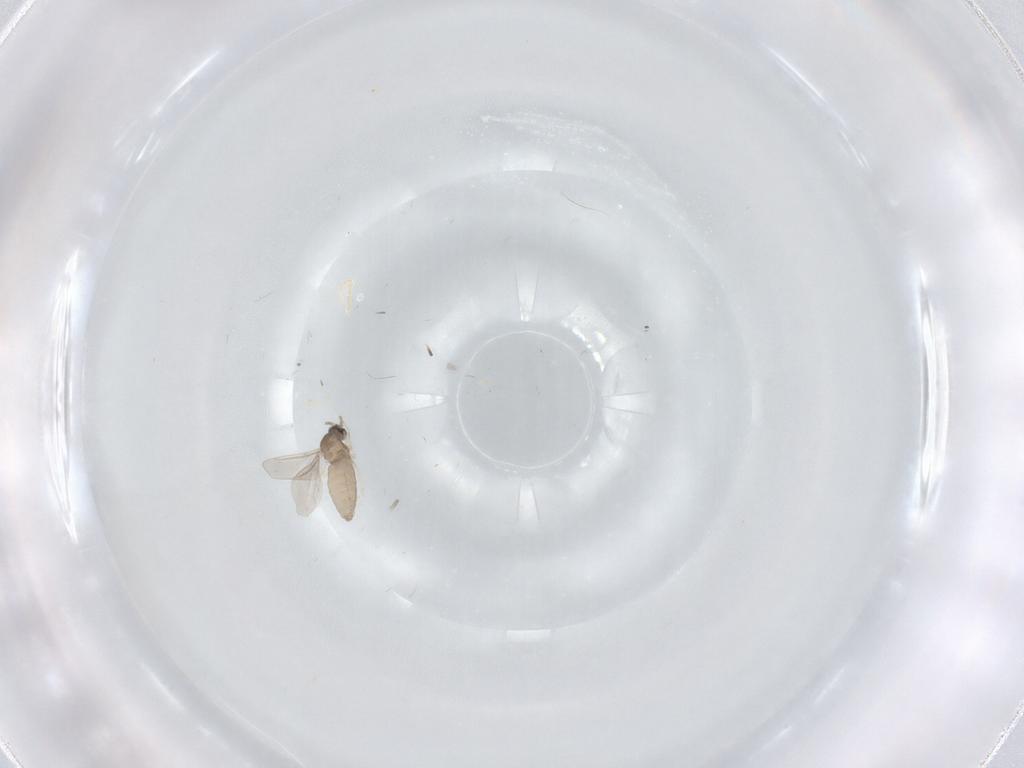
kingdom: Animalia
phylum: Arthropoda
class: Insecta
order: Diptera
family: Cecidomyiidae
